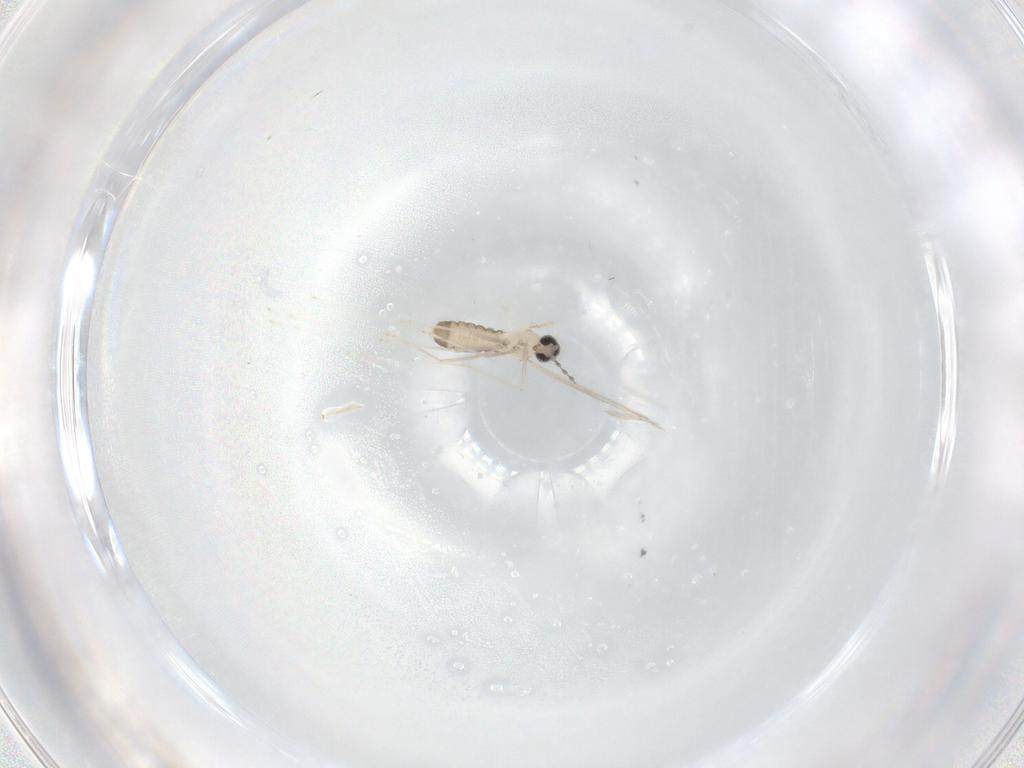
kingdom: Animalia
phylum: Arthropoda
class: Insecta
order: Diptera
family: Cecidomyiidae
